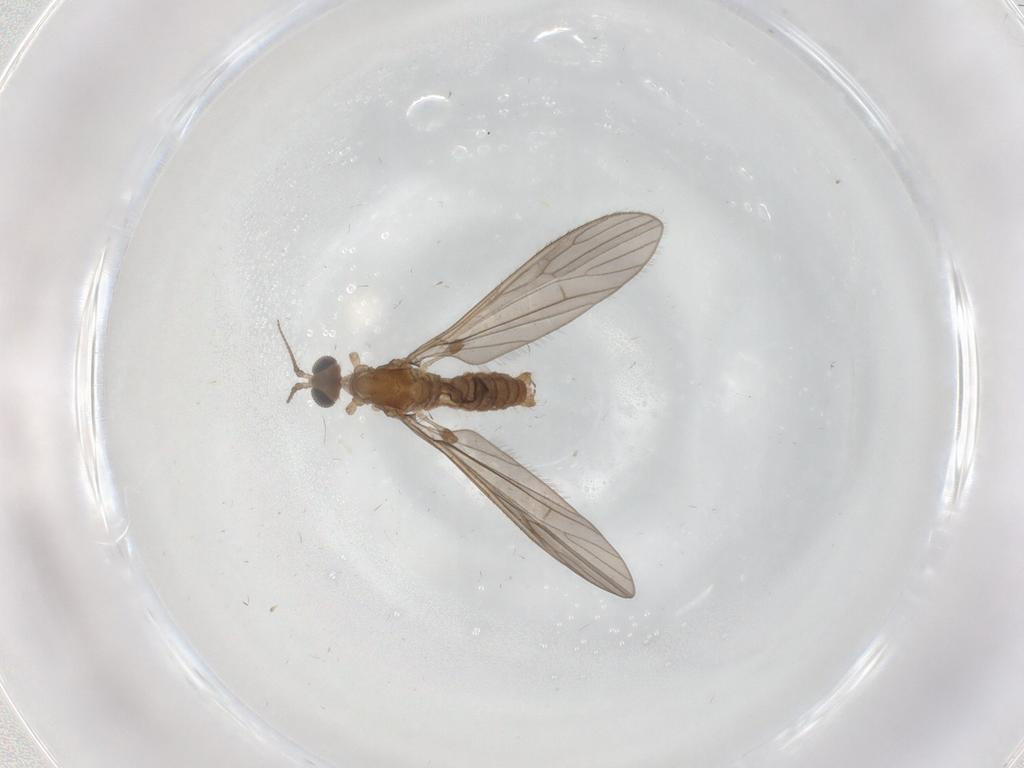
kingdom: Animalia
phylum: Arthropoda
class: Insecta
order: Diptera
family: Limoniidae
